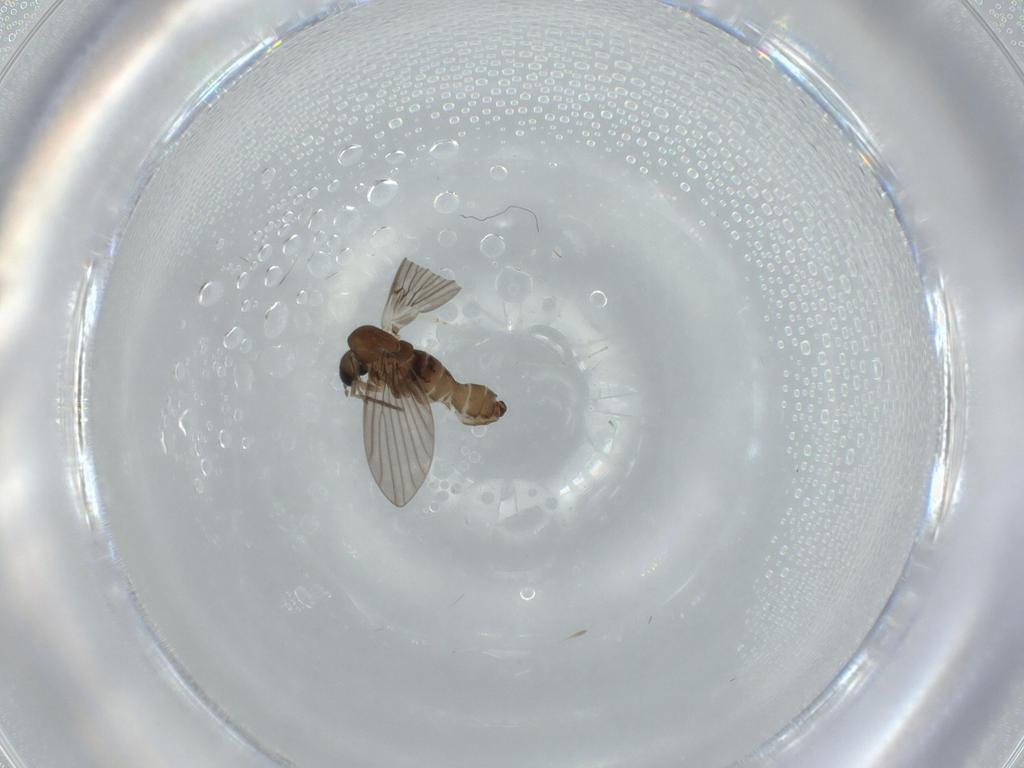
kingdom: Animalia
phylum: Arthropoda
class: Insecta
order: Diptera
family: Psychodidae
